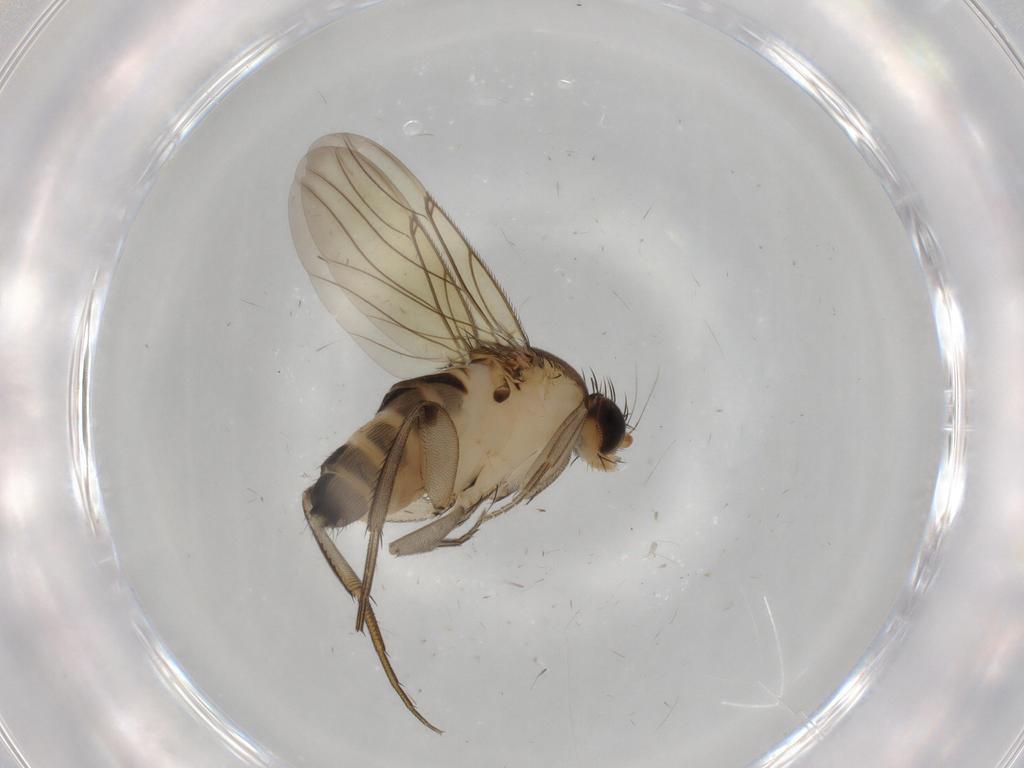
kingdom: Animalia
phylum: Arthropoda
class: Insecta
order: Diptera
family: Phoridae
